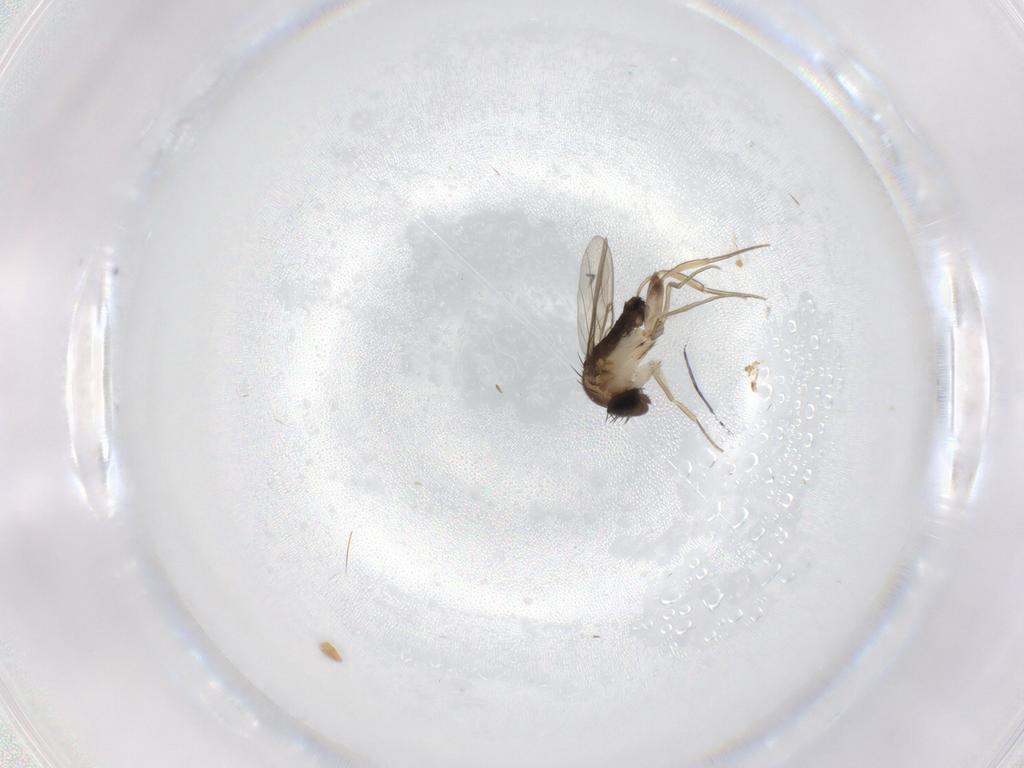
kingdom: Animalia
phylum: Arthropoda
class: Insecta
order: Diptera
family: Phoridae
